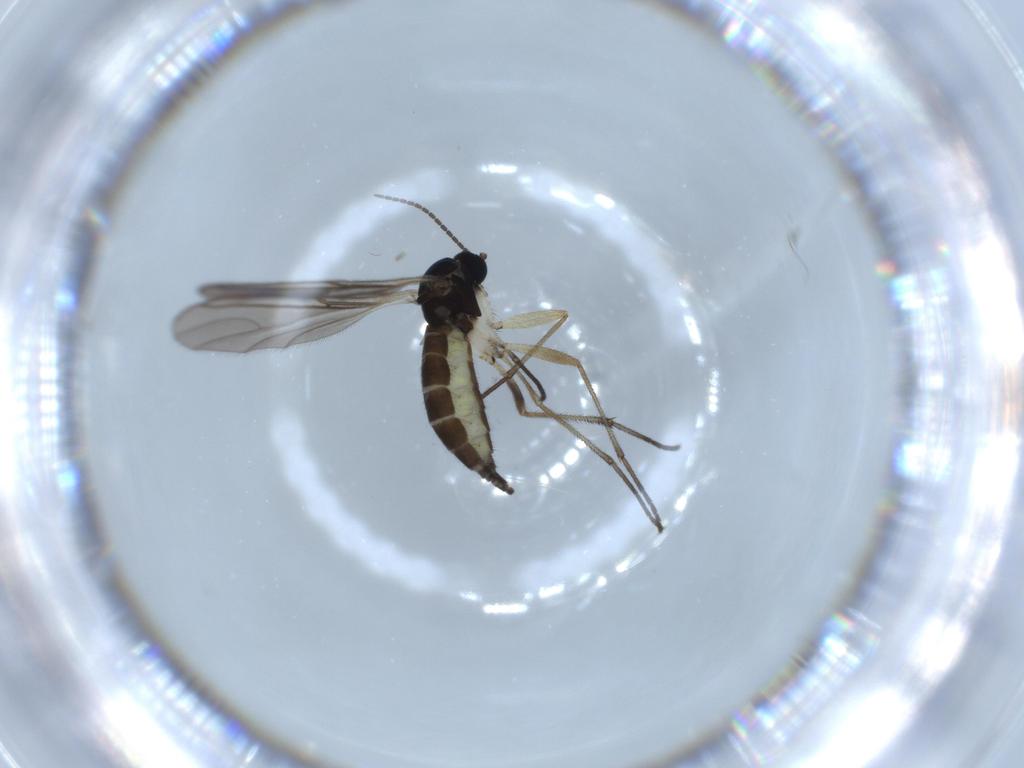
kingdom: Animalia
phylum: Arthropoda
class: Insecta
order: Diptera
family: Sciaridae
